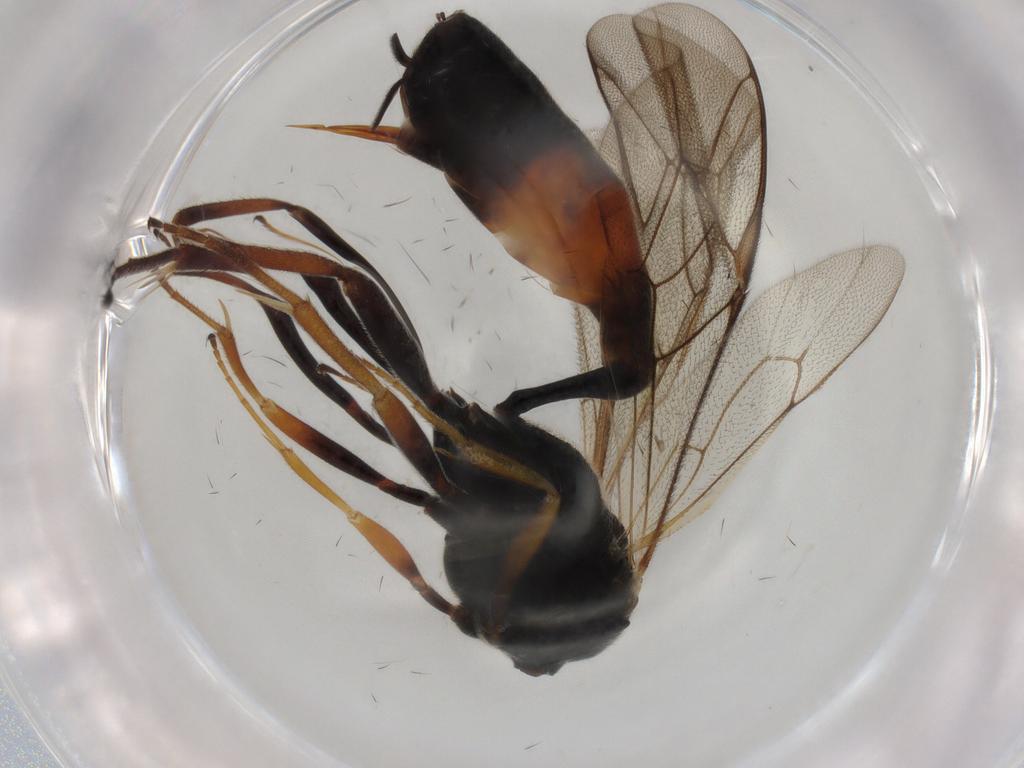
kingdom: Animalia
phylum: Arthropoda
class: Insecta
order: Hymenoptera
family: Ichneumonidae
